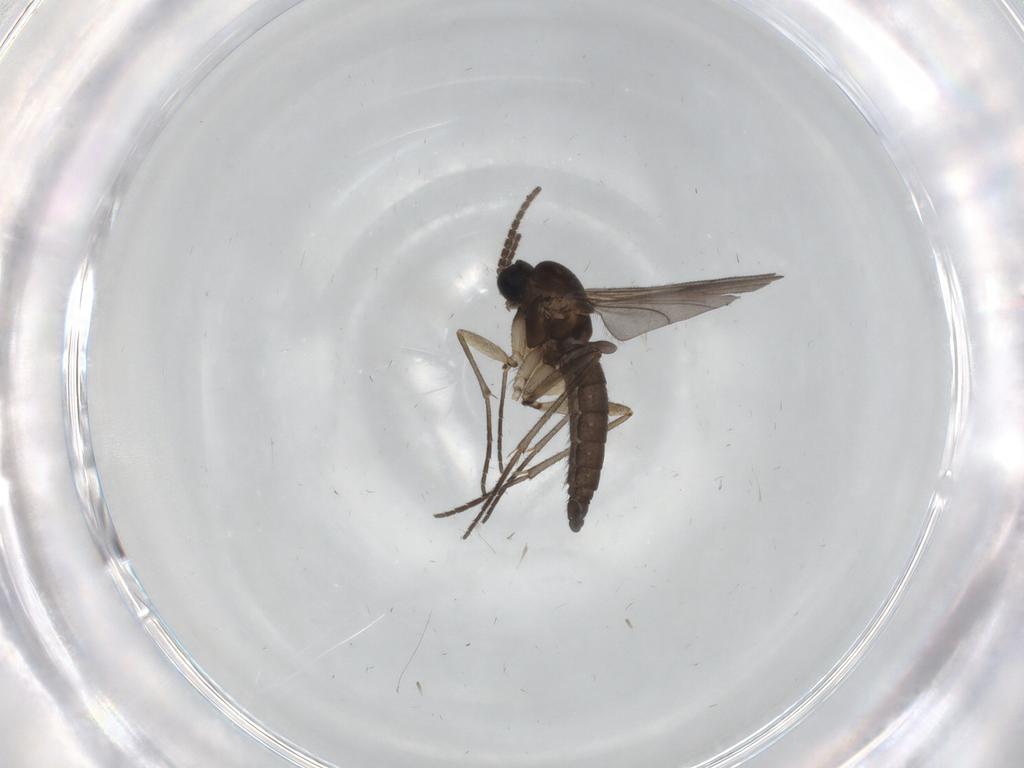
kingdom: Animalia
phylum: Arthropoda
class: Insecta
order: Diptera
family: Sciaridae
